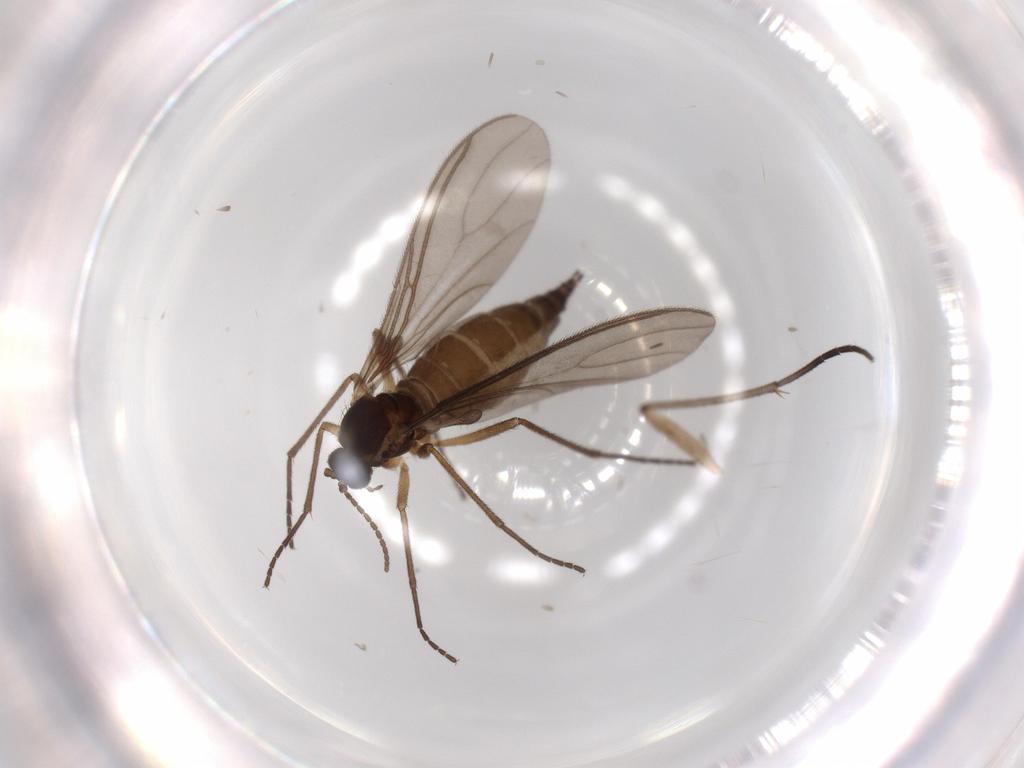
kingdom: Animalia
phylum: Arthropoda
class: Insecta
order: Diptera
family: Sciaridae
